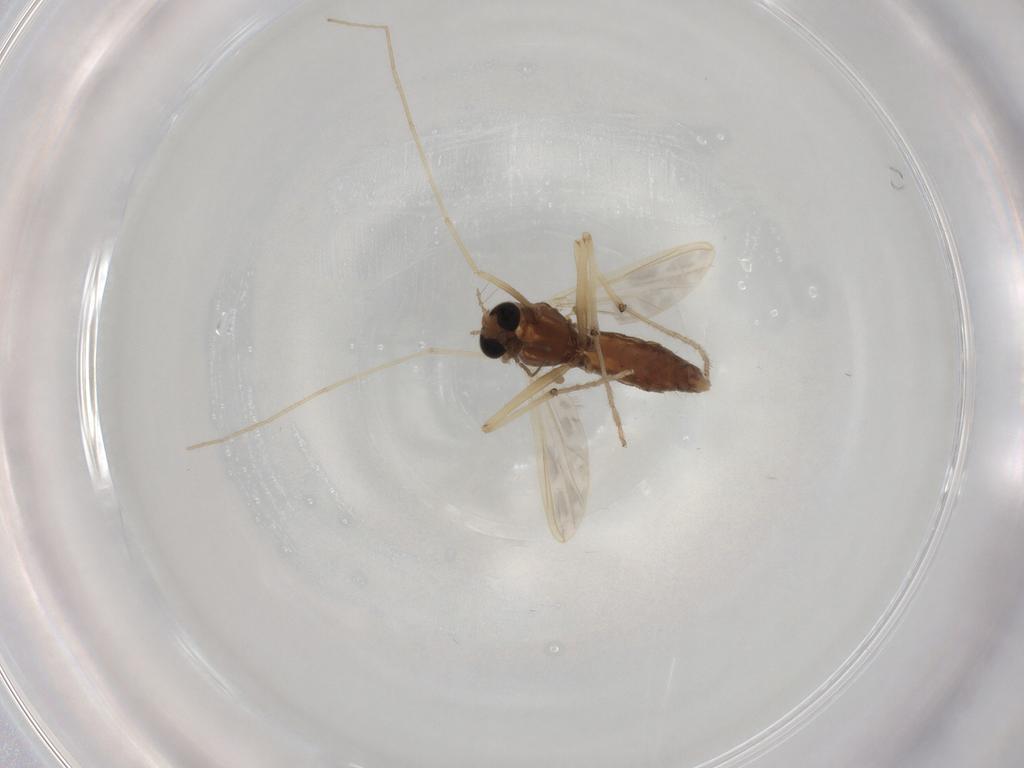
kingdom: Animalia
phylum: Arthropoda
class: Insecta
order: Diptera
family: Chironomidae
